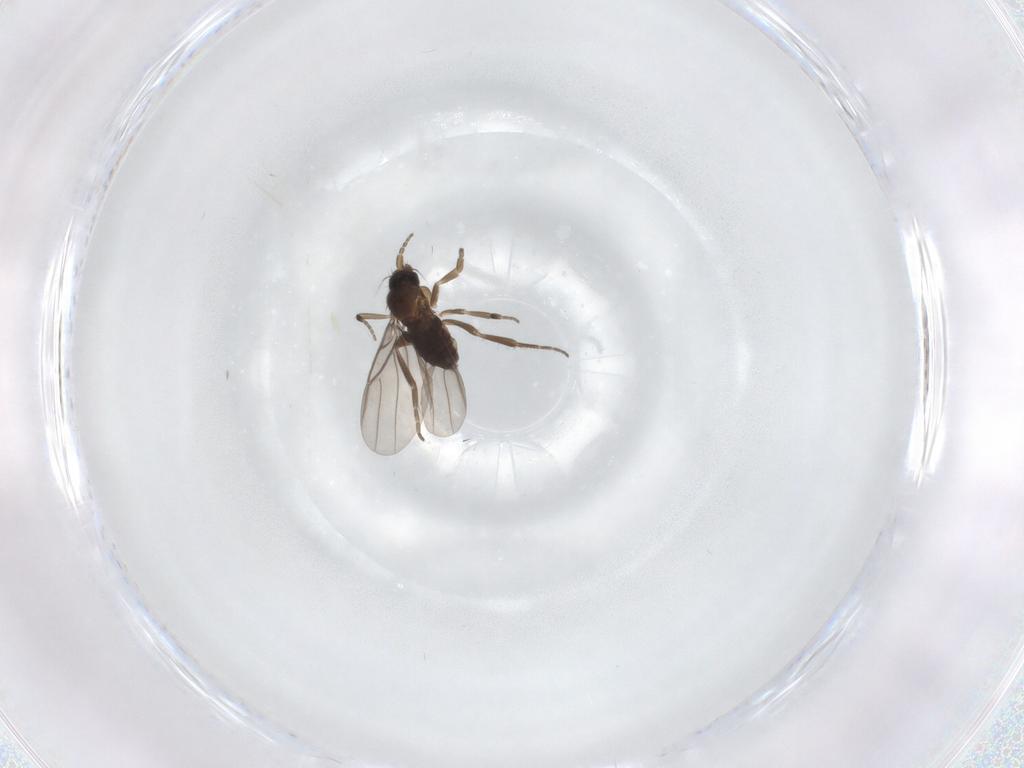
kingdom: Animalia
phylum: Arthropoda
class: Insecta
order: Diptera
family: Phoridae
